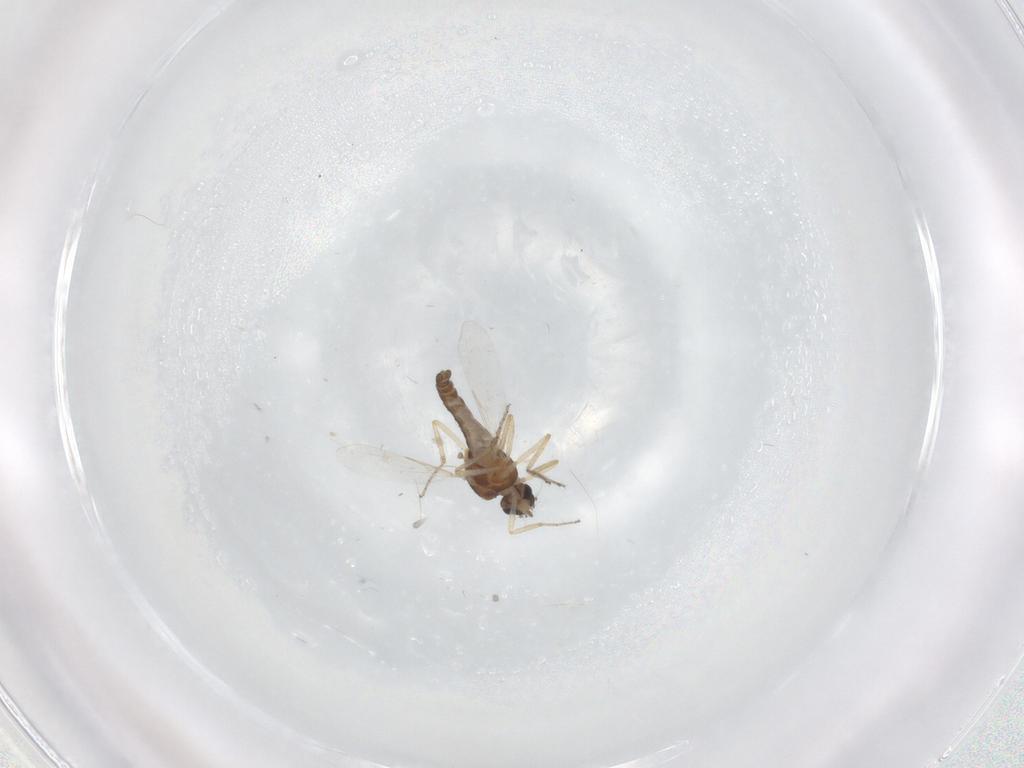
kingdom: Animalia
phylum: Arthropoda
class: Insecta
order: Diptera
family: Ceratopogonidae
